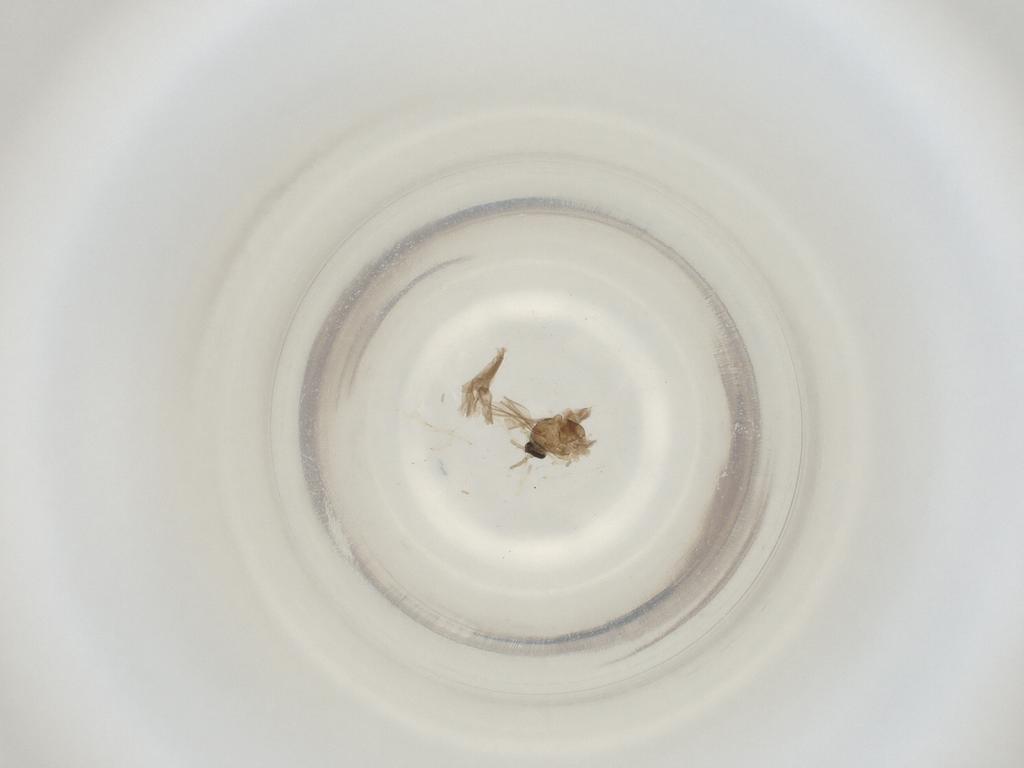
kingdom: Animalia
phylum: Arthropoda
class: Insecta
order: Diptera
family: Cecidomyiidae
